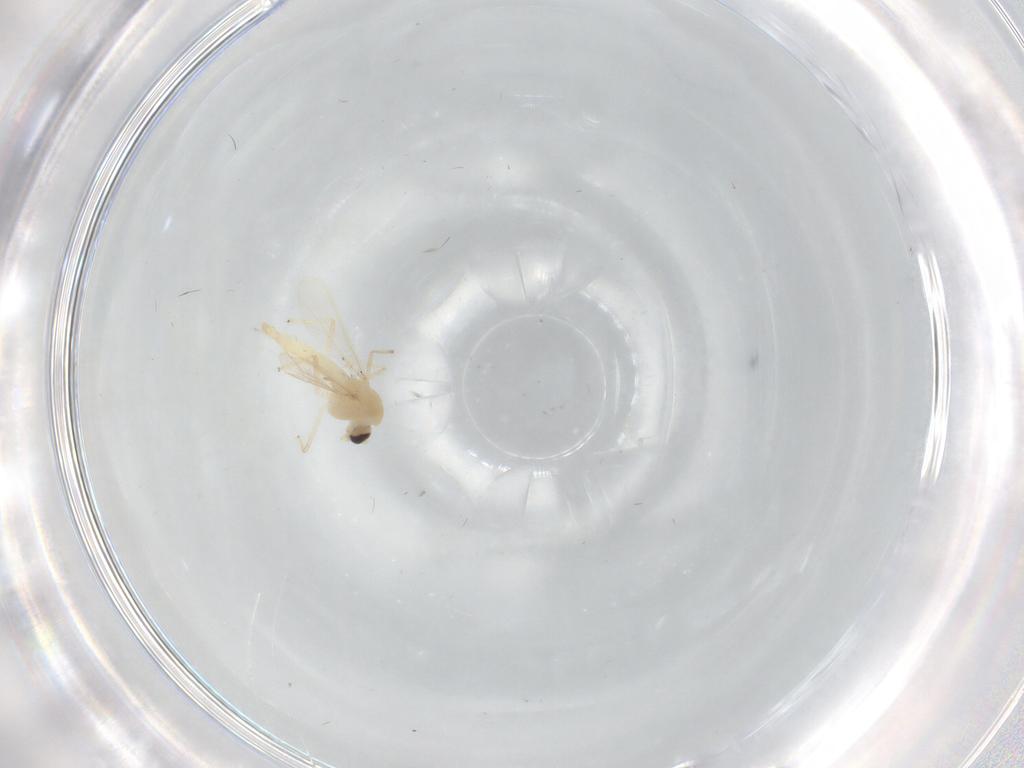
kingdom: Animalia
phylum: Arthropoda
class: Insecta
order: Diptera
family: Chironomidae
